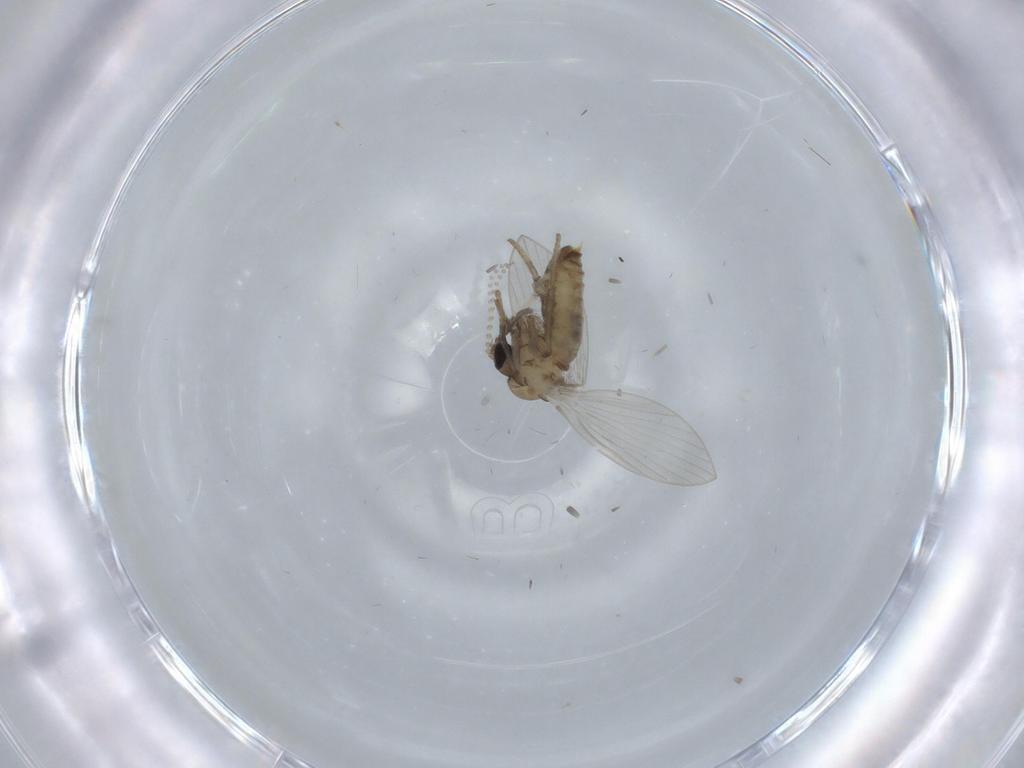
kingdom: Animalia
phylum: Arthropoda
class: Insecta
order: Diptera
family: Psychodidae
